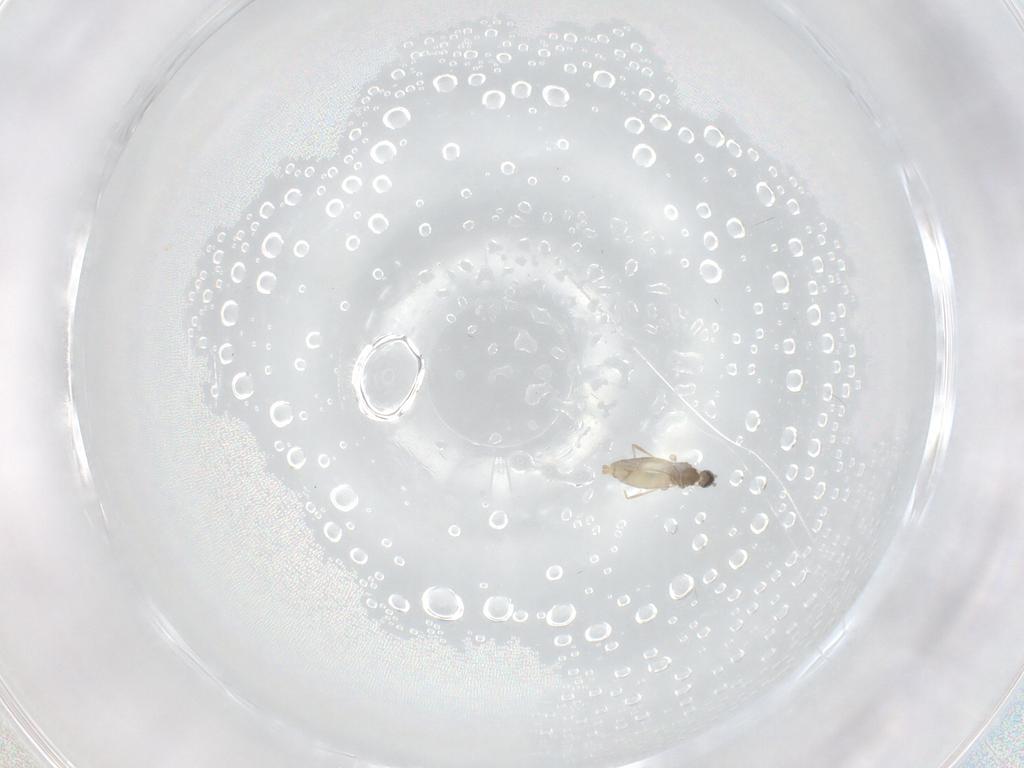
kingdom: Animalia
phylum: Arthropoda
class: Insecta
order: Diptera
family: Cecidomyiidae
